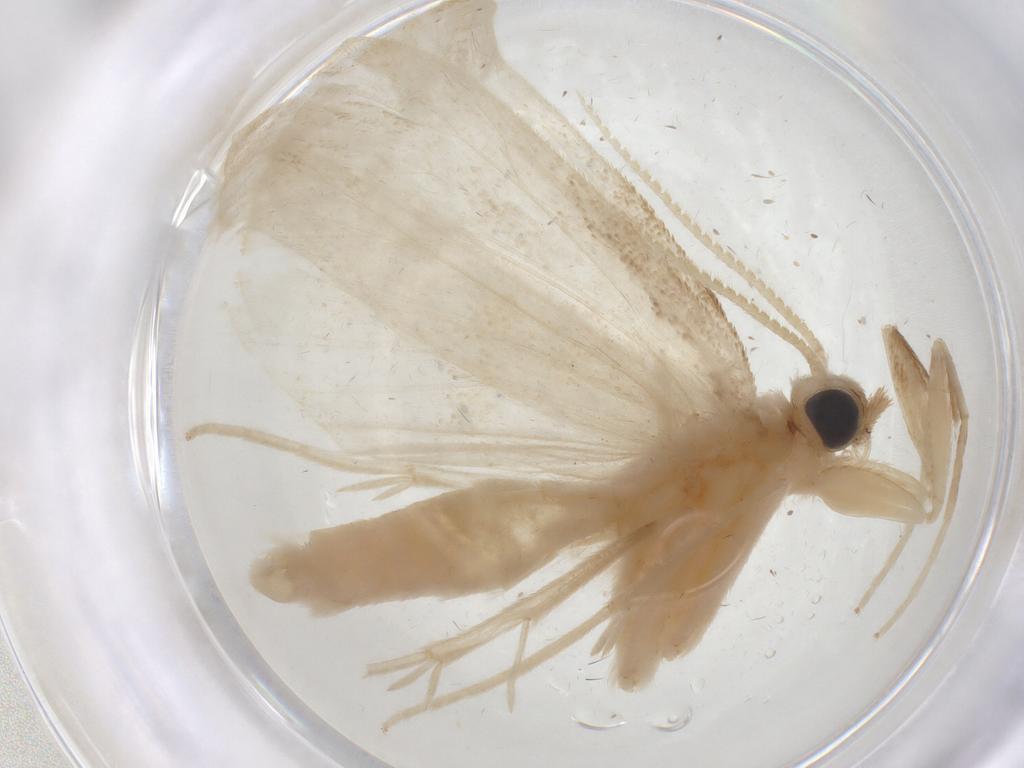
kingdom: Animalia
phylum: Arthropoda
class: Insecta
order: Lepidoptera
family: Crambidae
